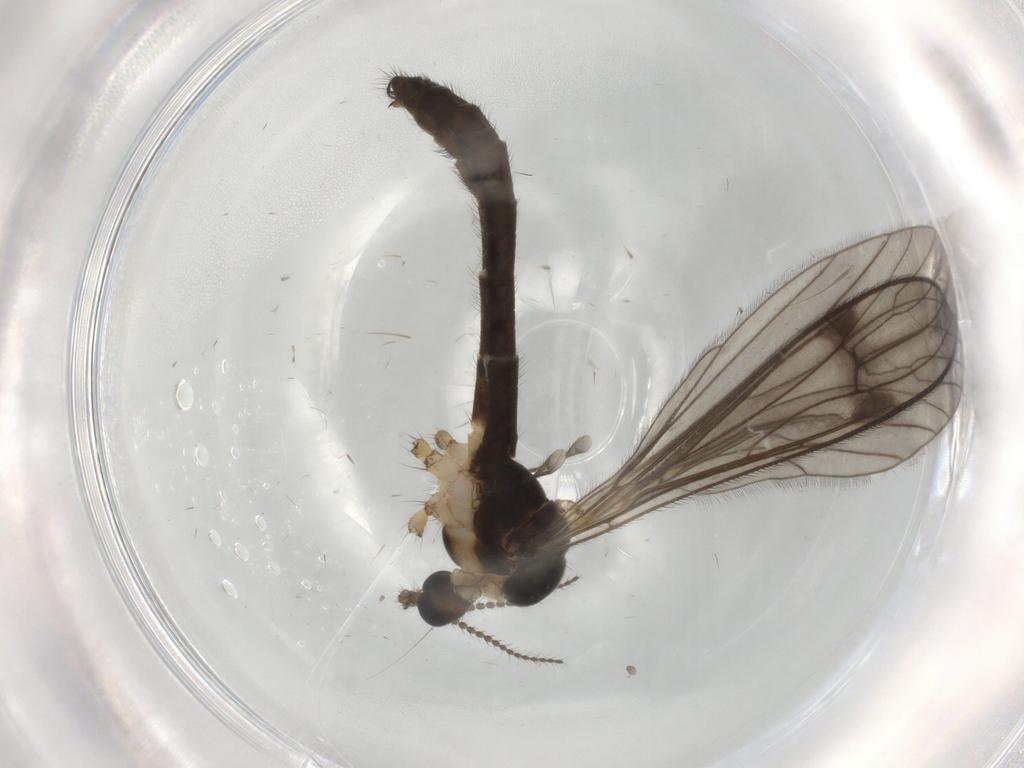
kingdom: Animalia
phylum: Arthropoda
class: Insecta
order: Diptera
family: Limoniidae
